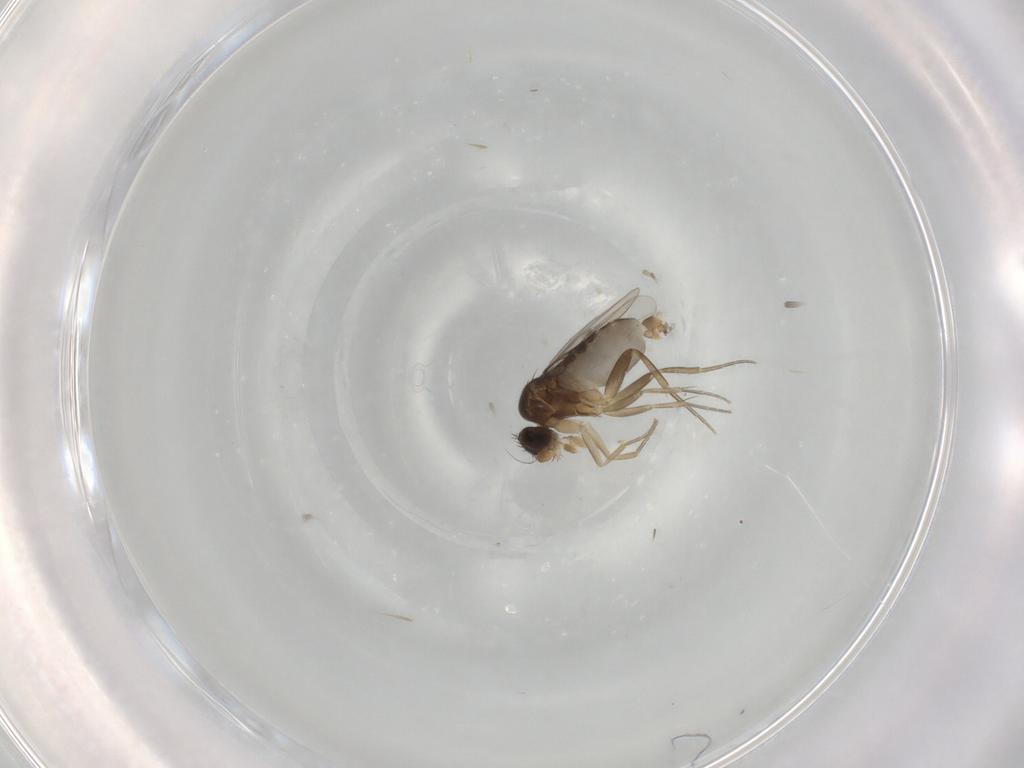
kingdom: Animalia
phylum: Arthropoda
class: Insecta
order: Diptera
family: Phoridae
